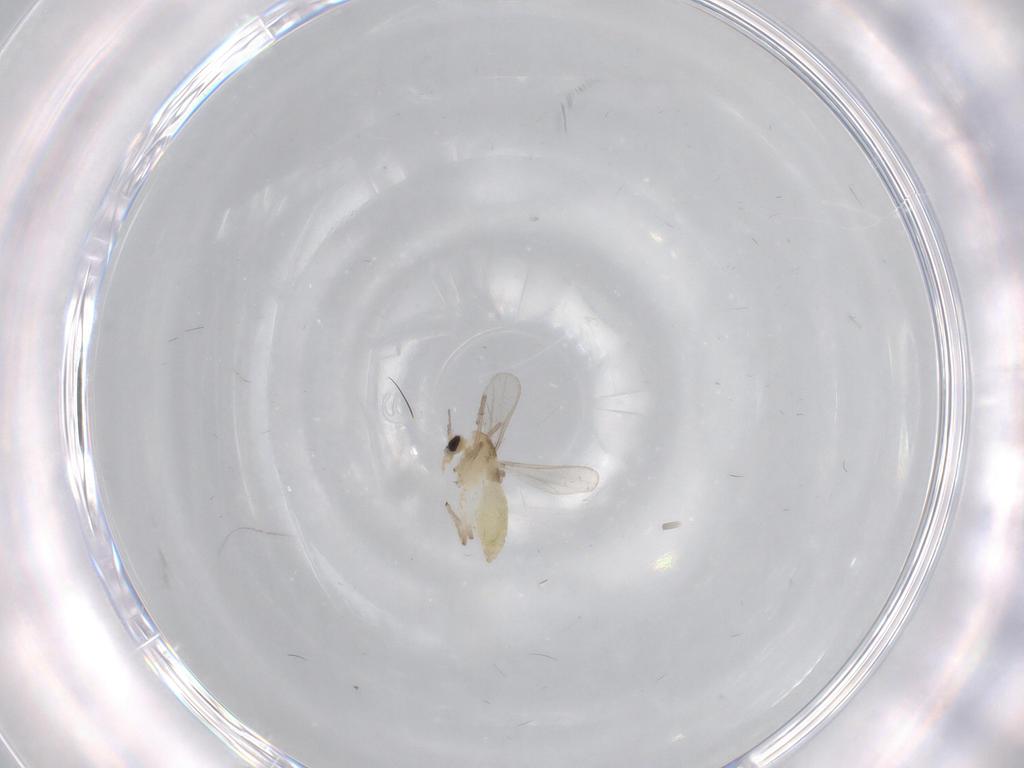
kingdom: Animalia
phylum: Arthropoda
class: Insecta
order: Diptera
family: Chironomidae
